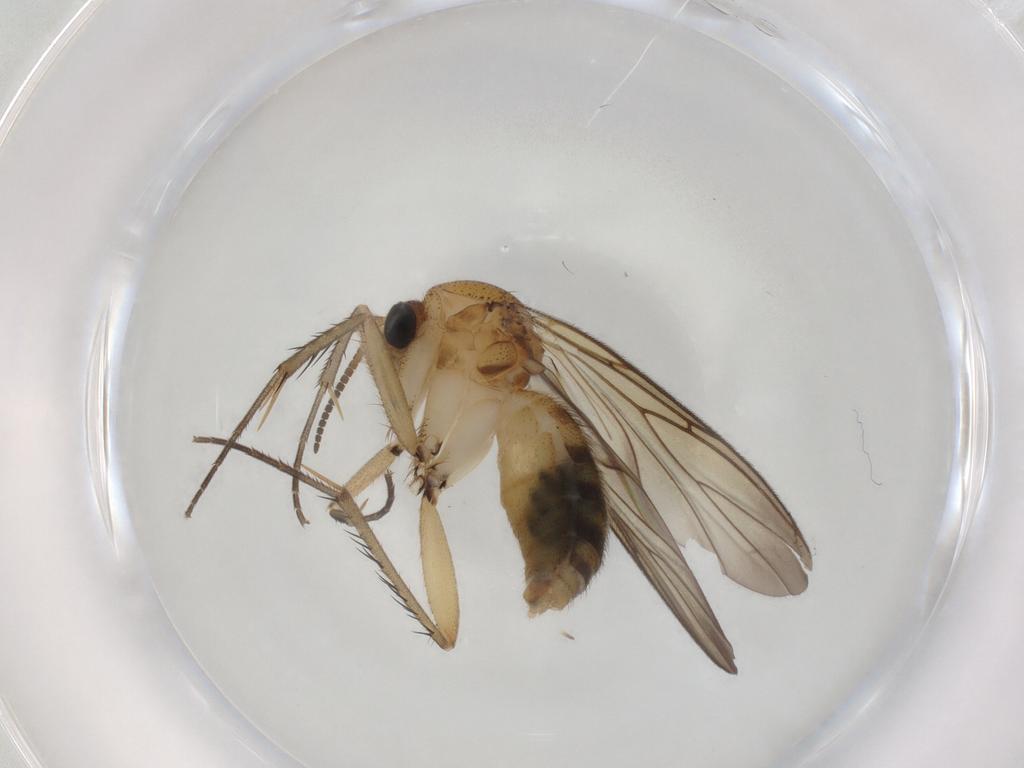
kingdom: Animalia
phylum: Arthropoda
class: Insecta
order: Diptera
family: Mycetophilidae
